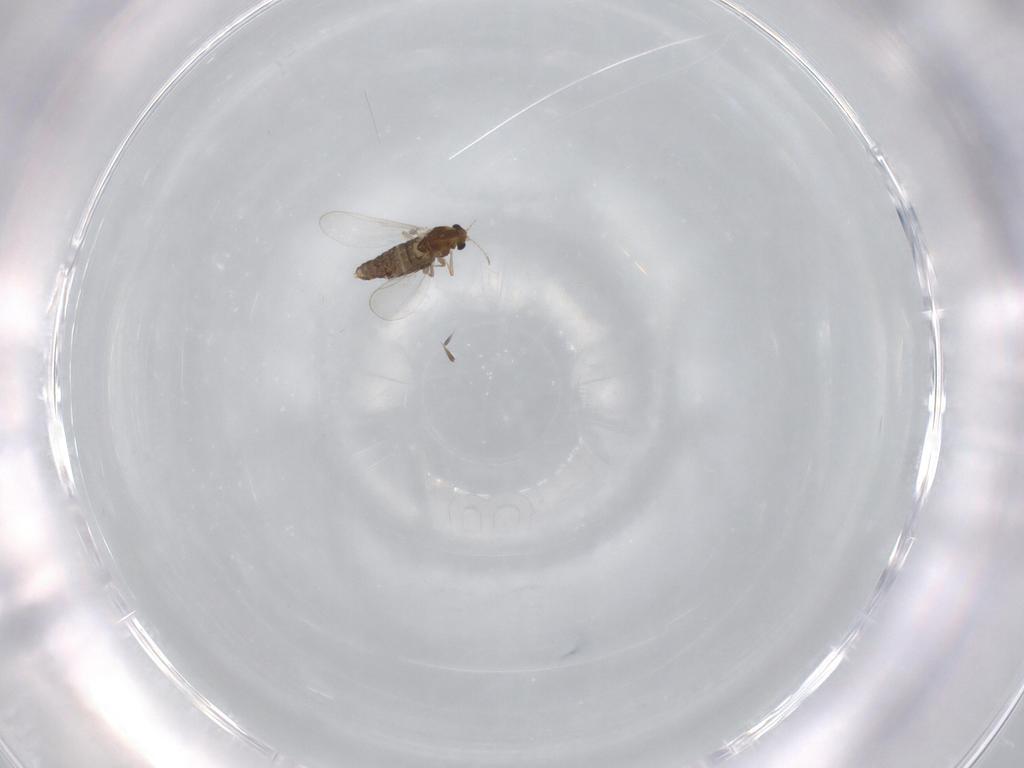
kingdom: Animalia
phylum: Arthropoda
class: Insecta
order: Diptera
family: Chironomidae
